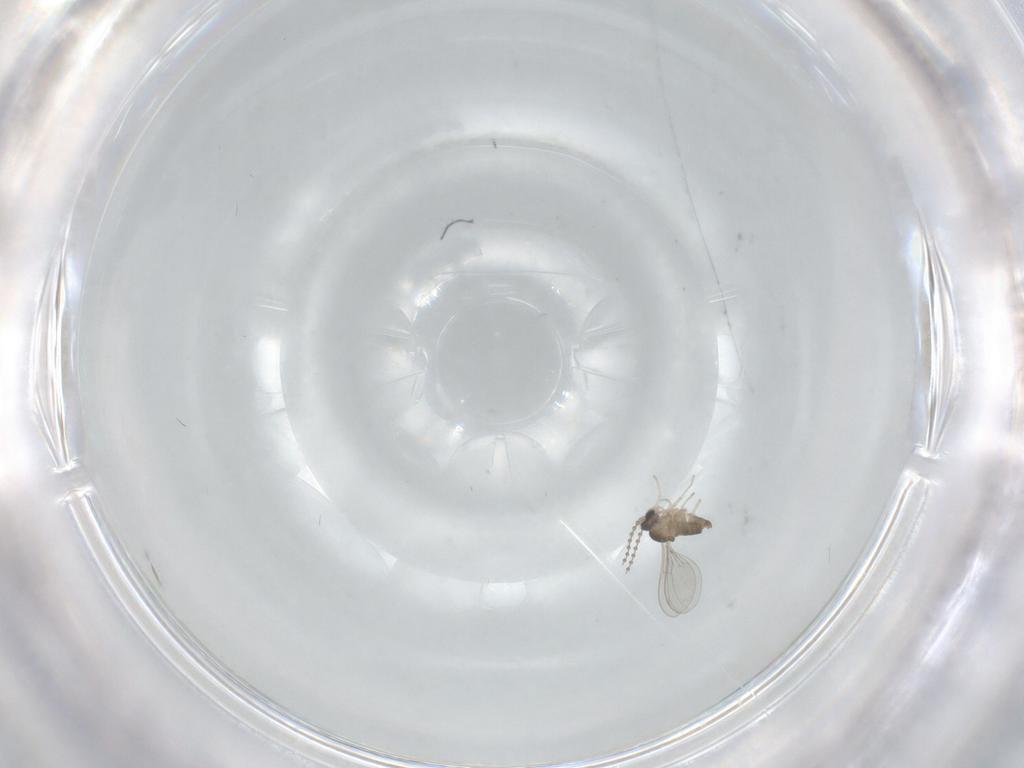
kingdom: Animalia
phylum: Arthropoda
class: Insecta
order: Diptera
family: Cecidomyiidae
